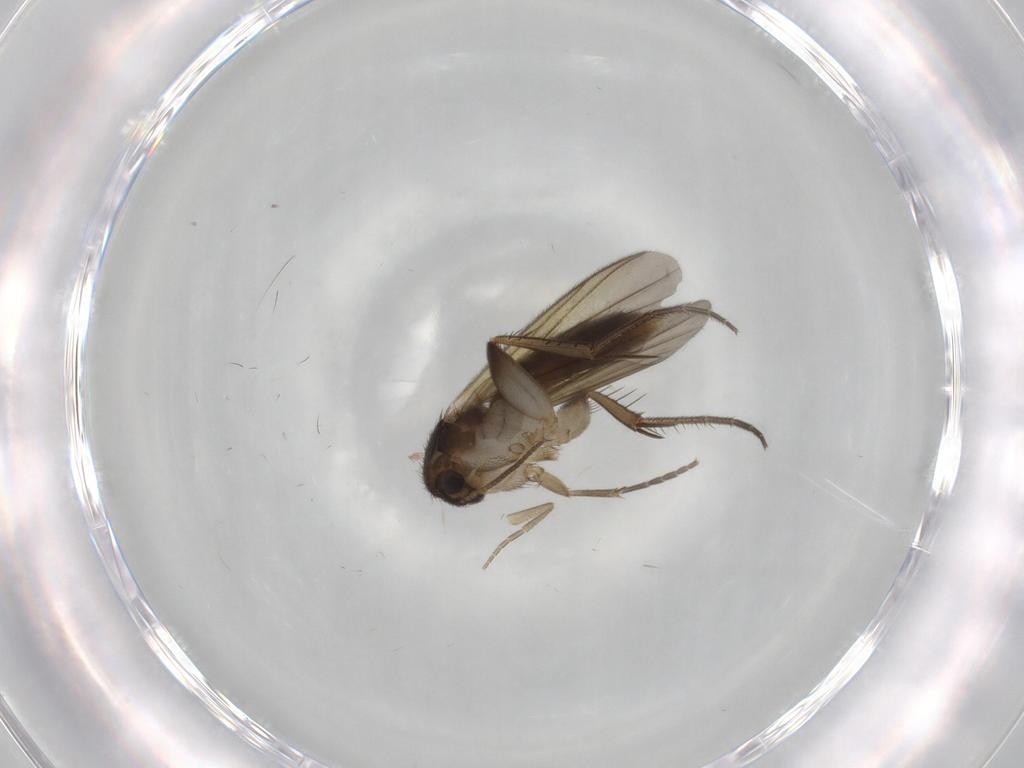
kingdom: Animalia
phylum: Arthropoda
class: Insecta
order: Diptera
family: Mycetophilidae
